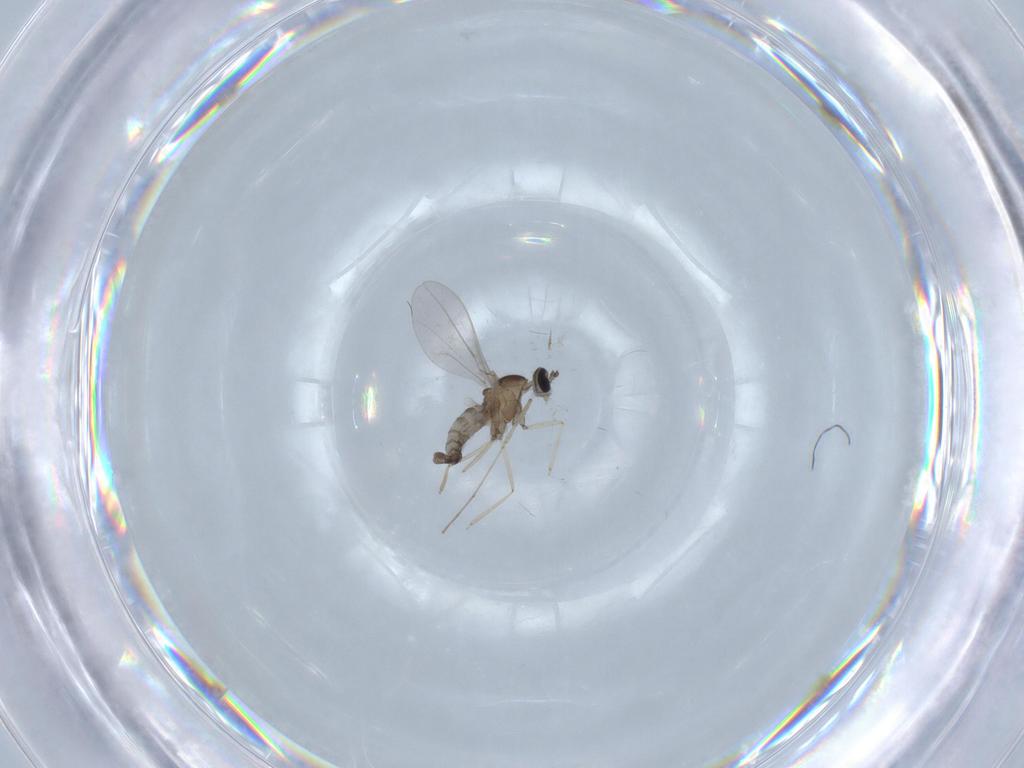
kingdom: Animalia
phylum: Arthropoda
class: Insecta
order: Diptera
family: Cecidomyiidae
